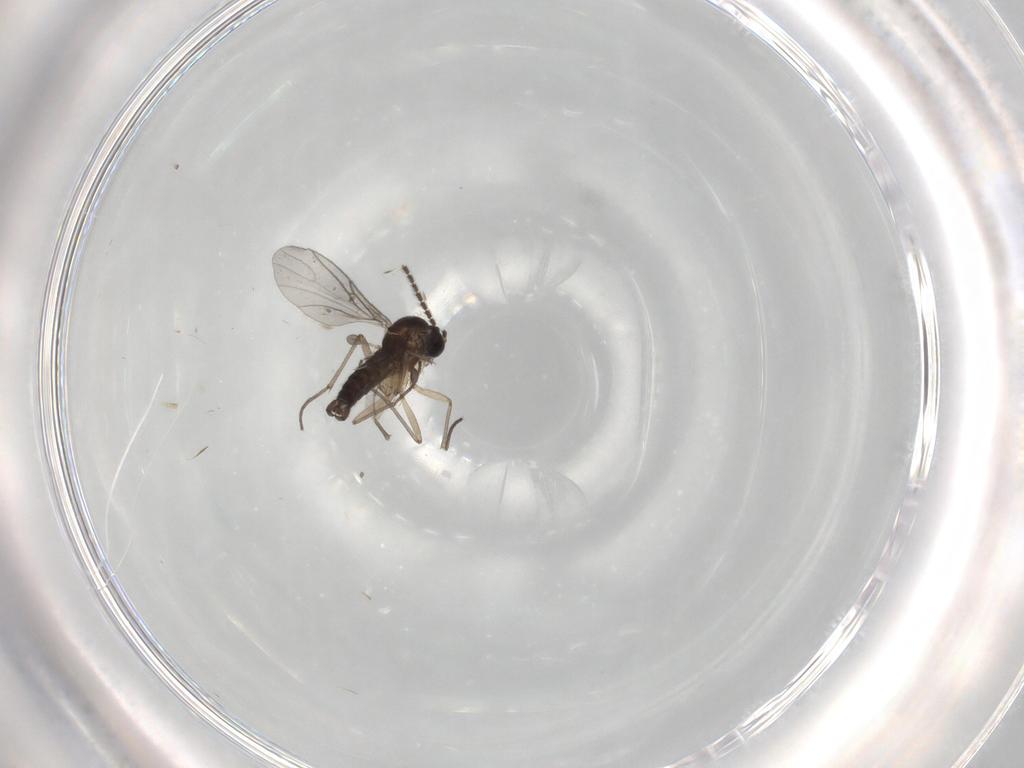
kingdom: Animalia
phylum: Arthropoda
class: Insecta
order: Diptera
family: Sciaridae
